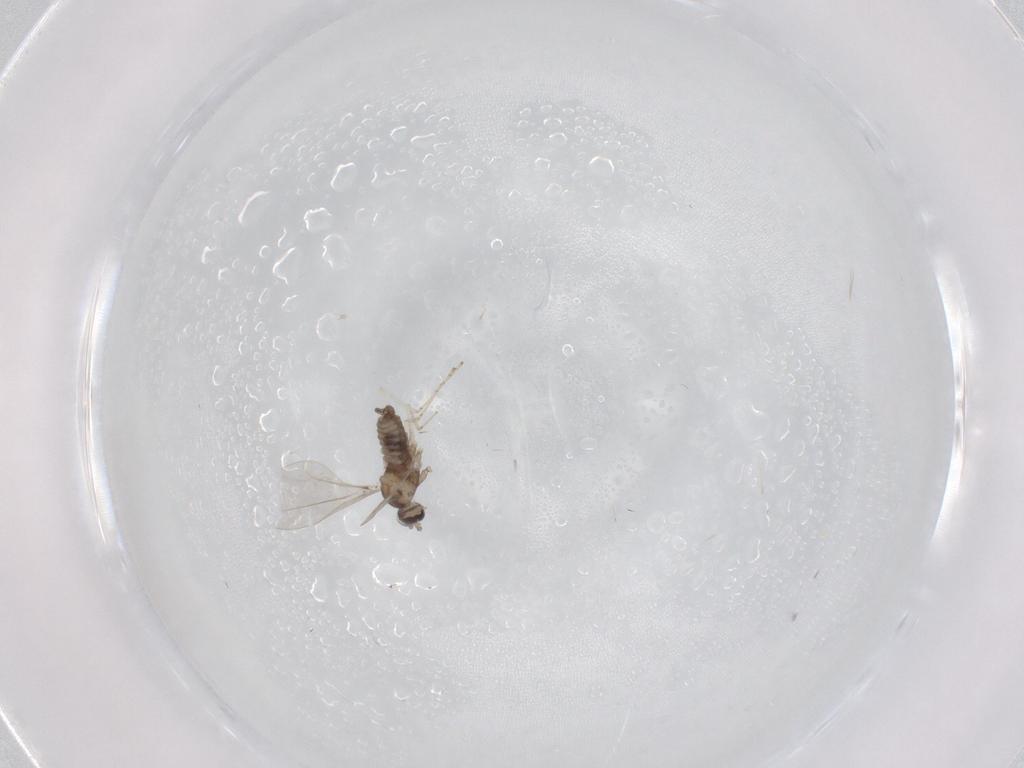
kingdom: Animalia
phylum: Arthropoda
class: Insecta
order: Diptera
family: Cecidomyiidae
